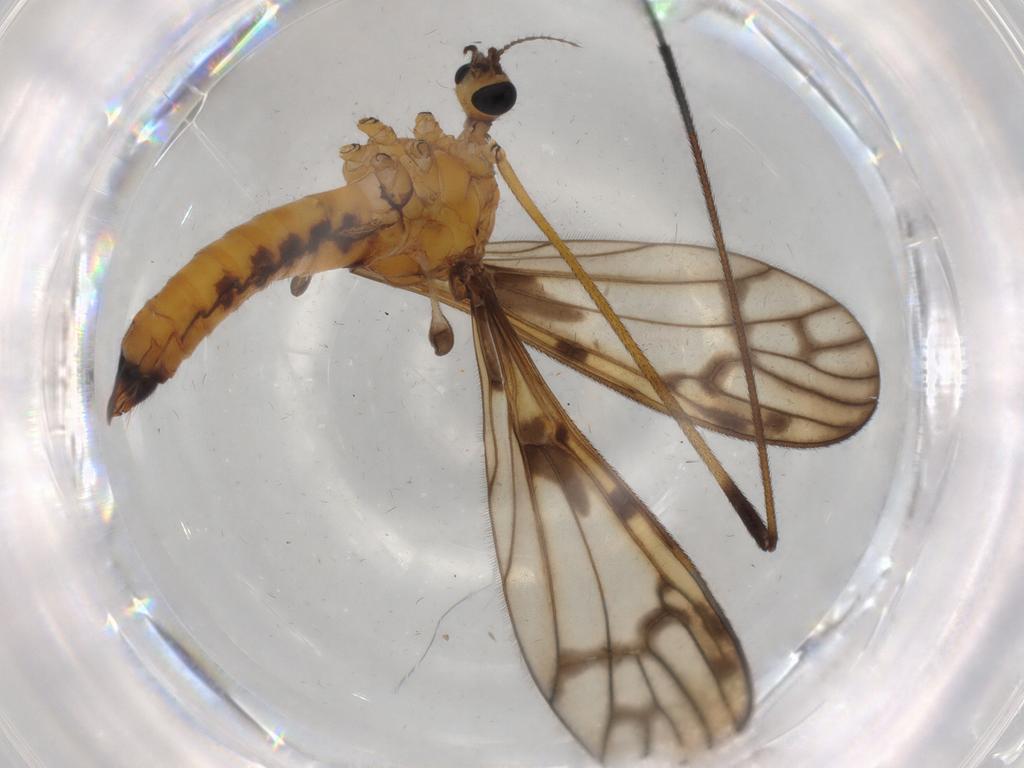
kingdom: Animalia
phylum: Arthropoda
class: Insecta
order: Diptera
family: Limoniidae
